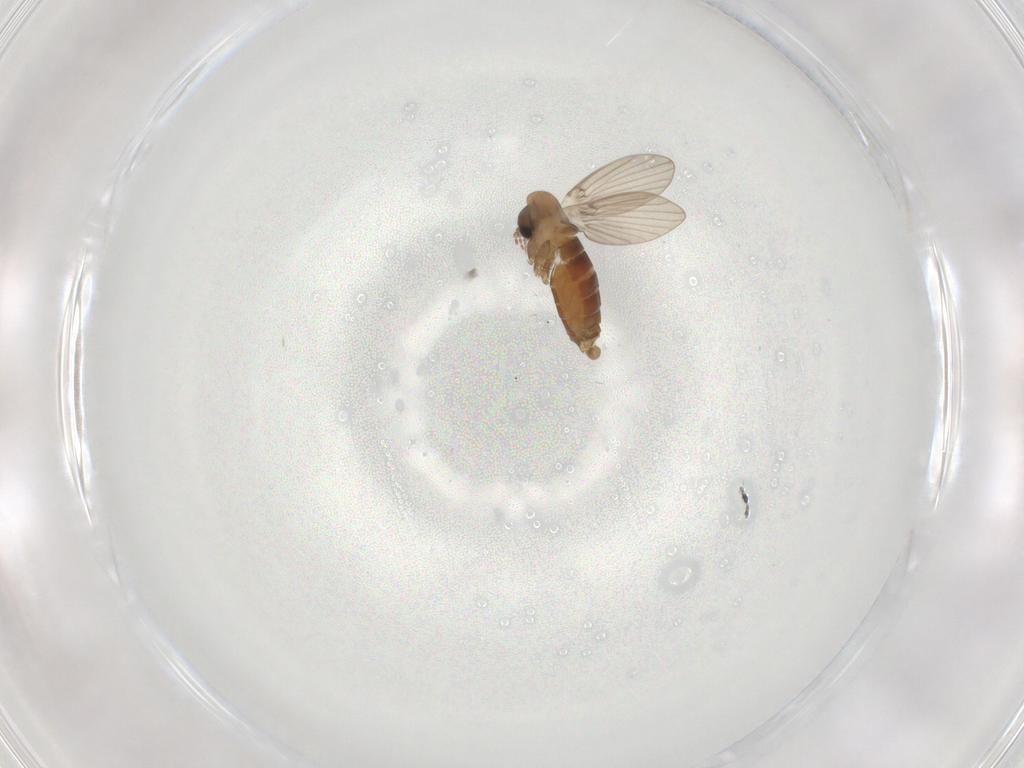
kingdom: Animalia
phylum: Arthropoda
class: Insecta
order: Diptera
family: Psychodidae
